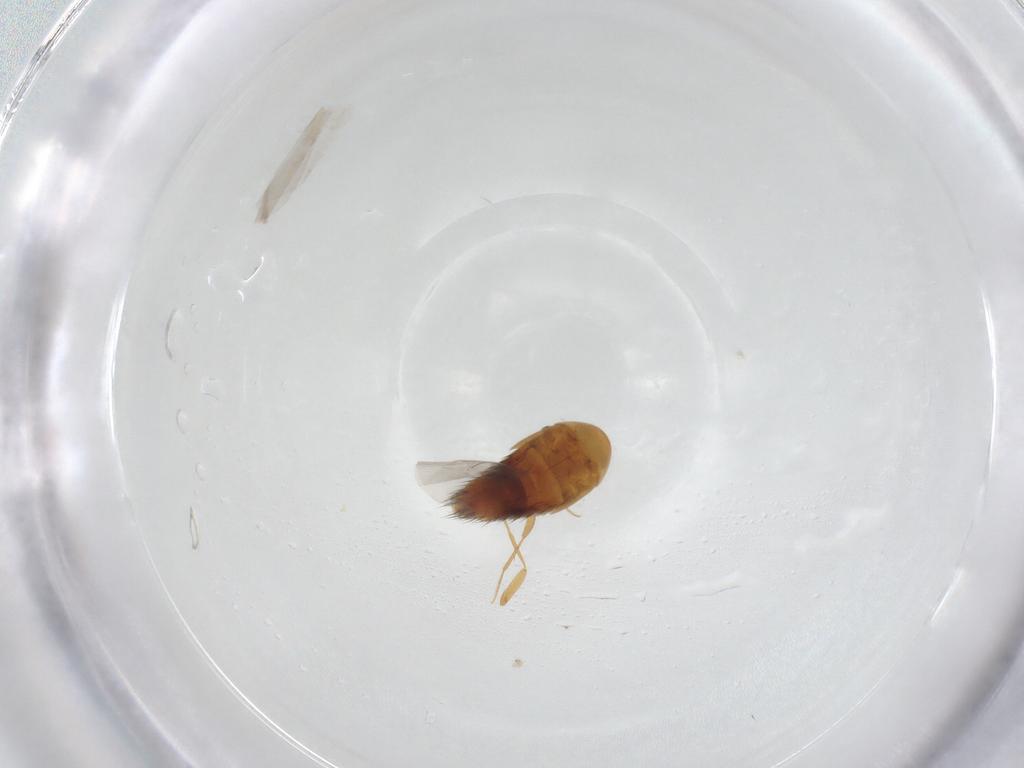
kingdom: Animalia
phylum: Arthropoda
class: Insecta
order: Coleoptera
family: Staphylinidae
